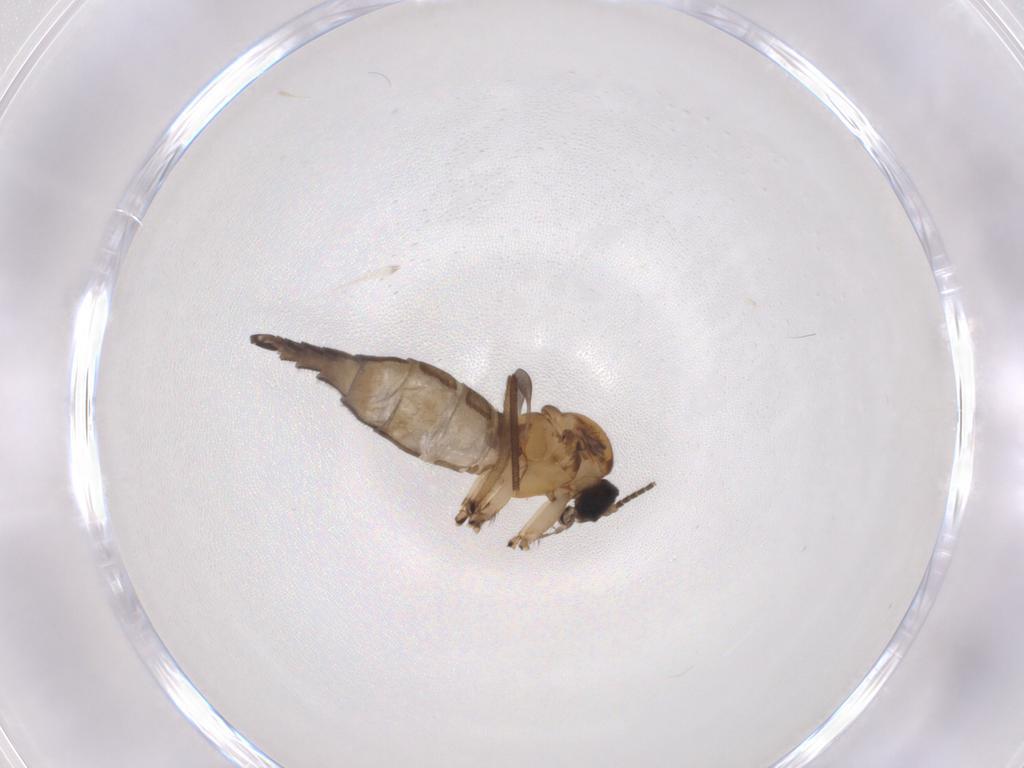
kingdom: Animalia
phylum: Arthropoda
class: Insecta
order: Diptera
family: Sciaridae
